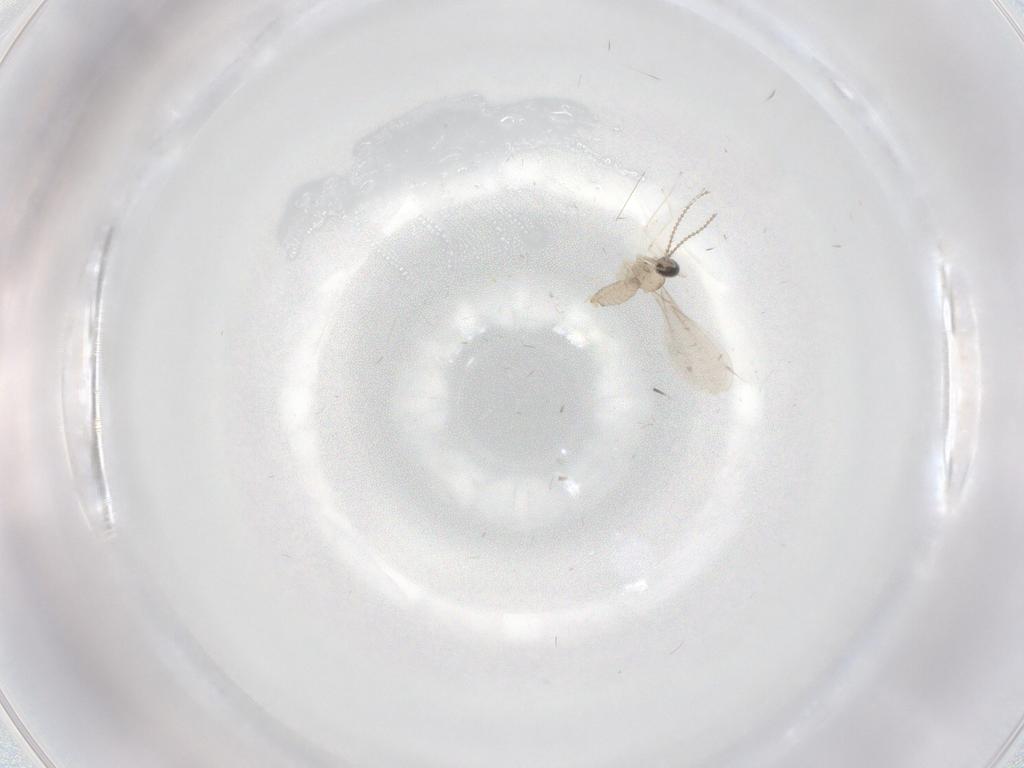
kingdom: Animalia
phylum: Arthropoda
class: Insecta
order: Diptera
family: Cecidomyiidae
